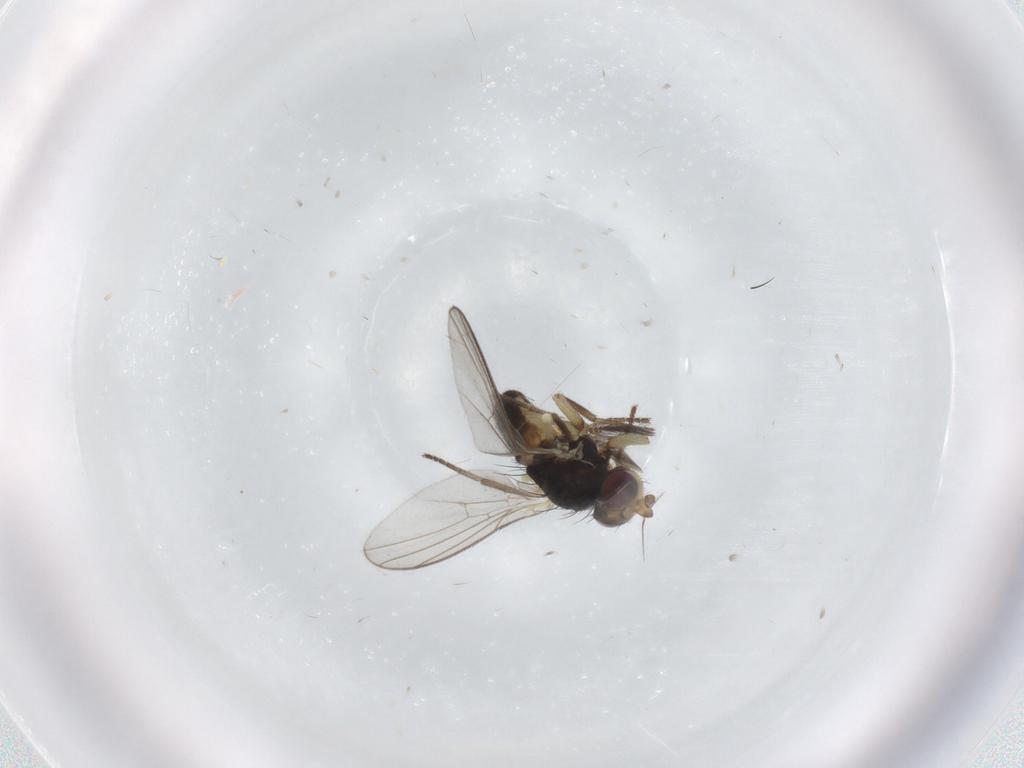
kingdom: Animalia
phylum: Arthropoda
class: Insecta
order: Diptera
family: Agromyzidae
